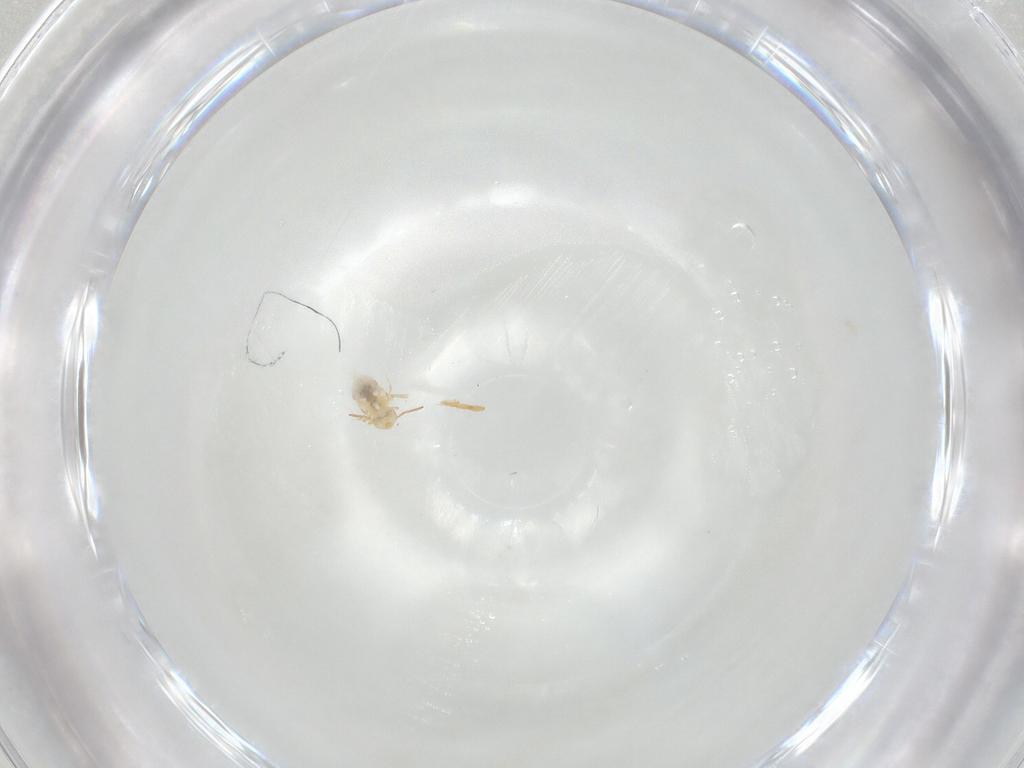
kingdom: Animalia
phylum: Arthropoda
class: Collembola
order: Symphypleona
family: Bourletiellidae
